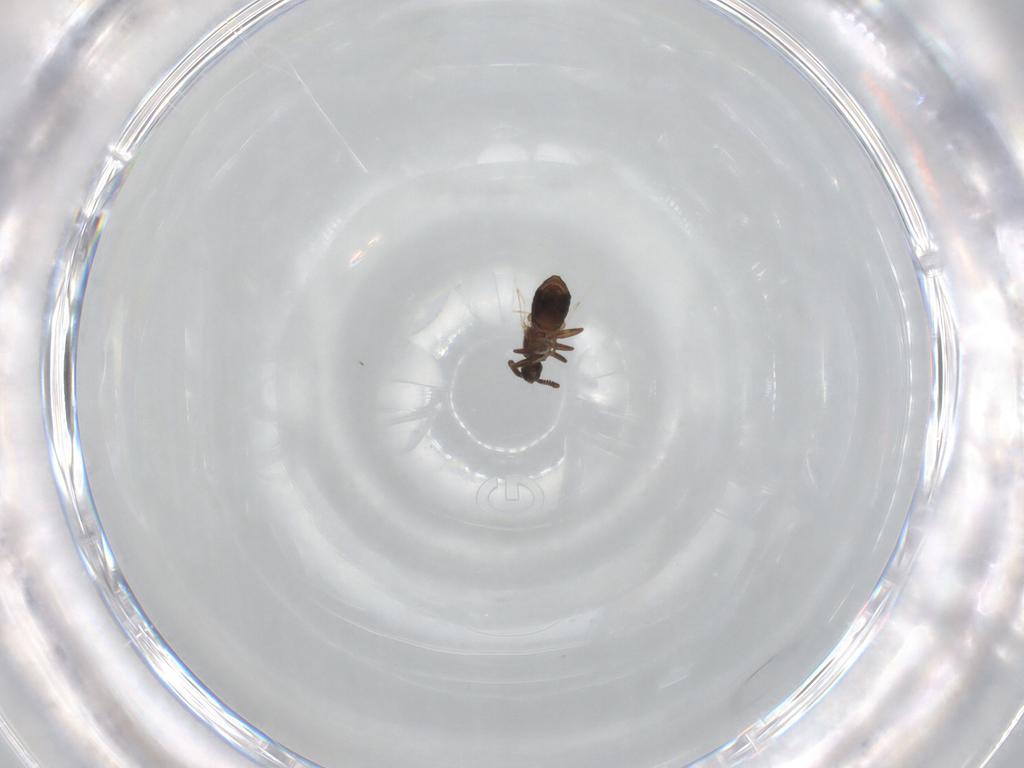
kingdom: Animalia
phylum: Arthropoda
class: Insecta
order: Diptera
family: Scatopsidae
